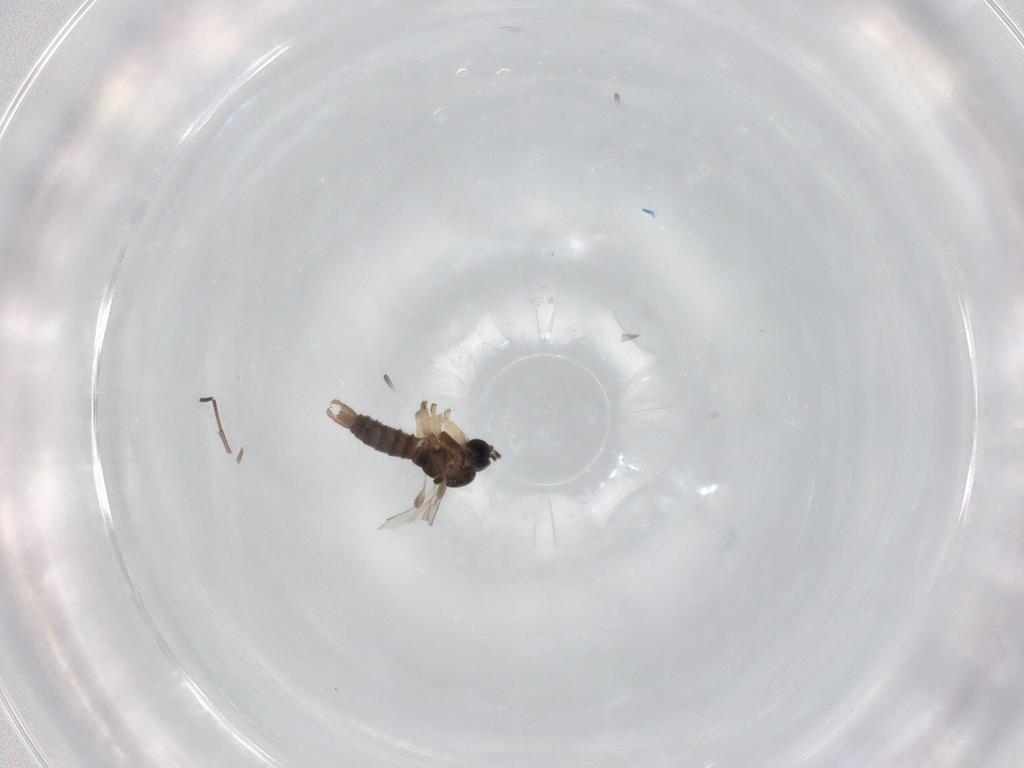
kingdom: Animalia
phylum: Arthropoda
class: Insecta
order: Diptera
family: Sciaridae
